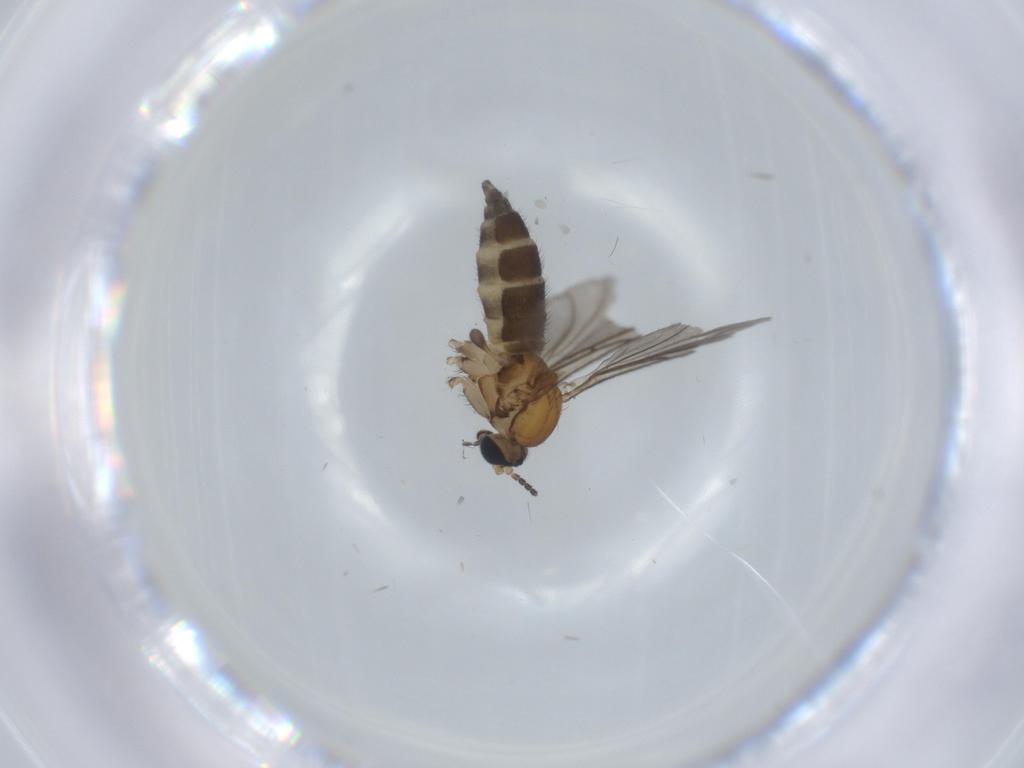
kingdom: Animalia
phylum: Arthropoda
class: Insecta
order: Diptera
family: Sciaridae
